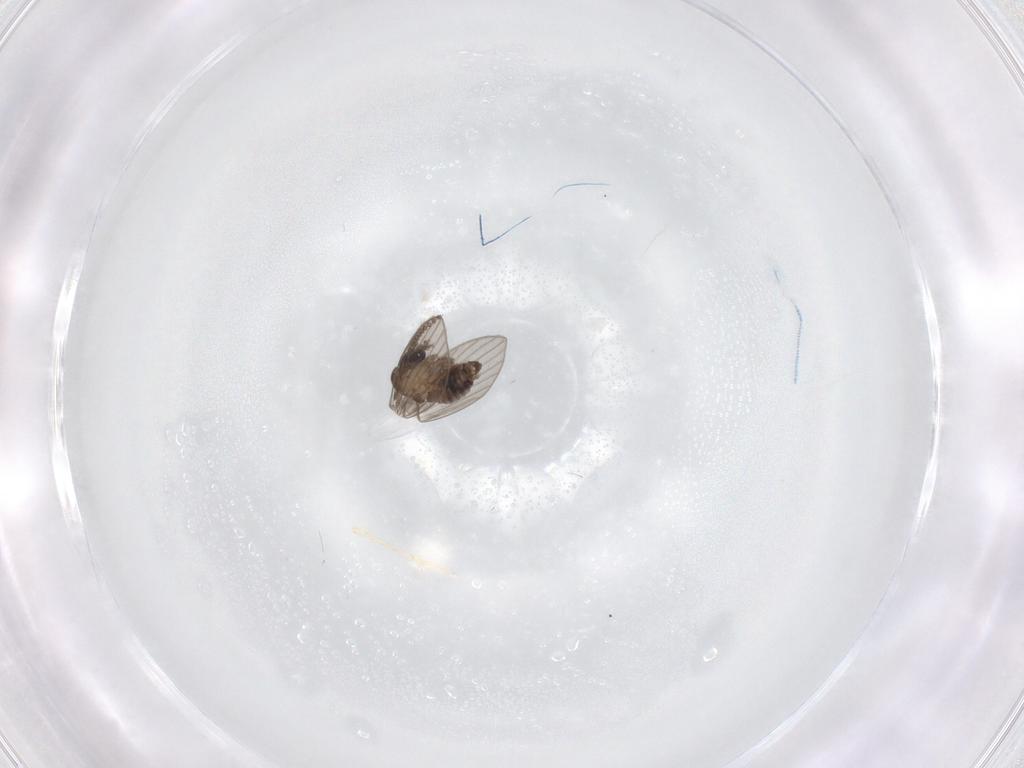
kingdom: Animalia
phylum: Arthropoda
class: Insecta
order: Diptera
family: Psychodidae
